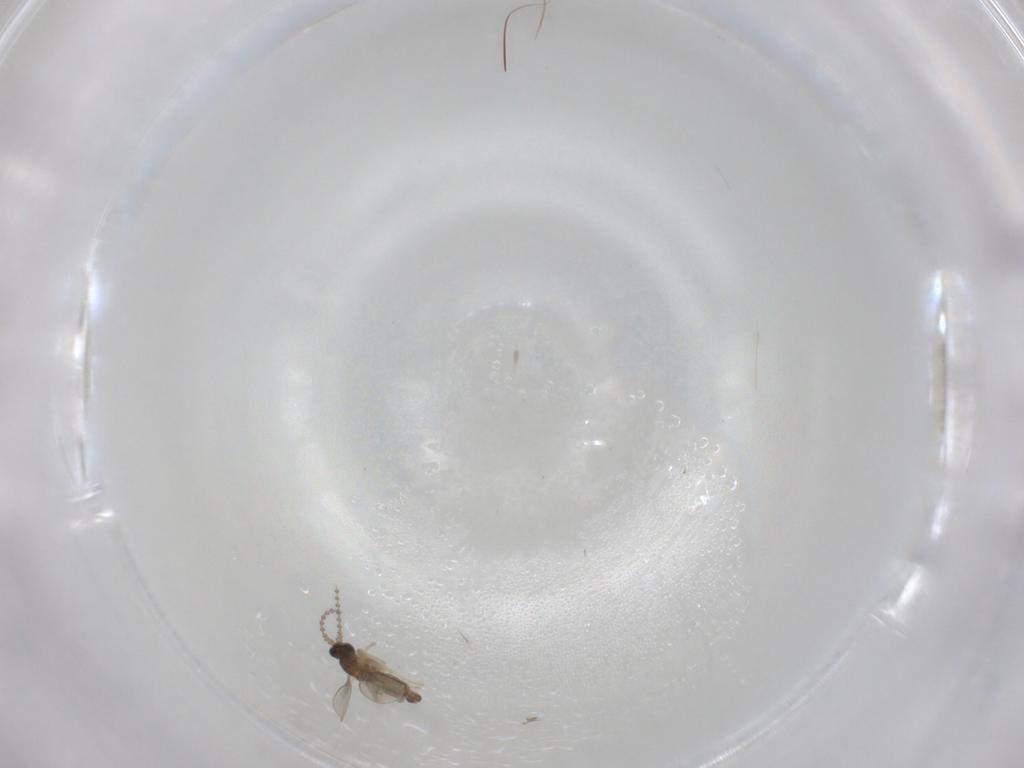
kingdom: Animalia
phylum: Arthropoda
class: Insecta
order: Diptera
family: Cecidomyiidae
